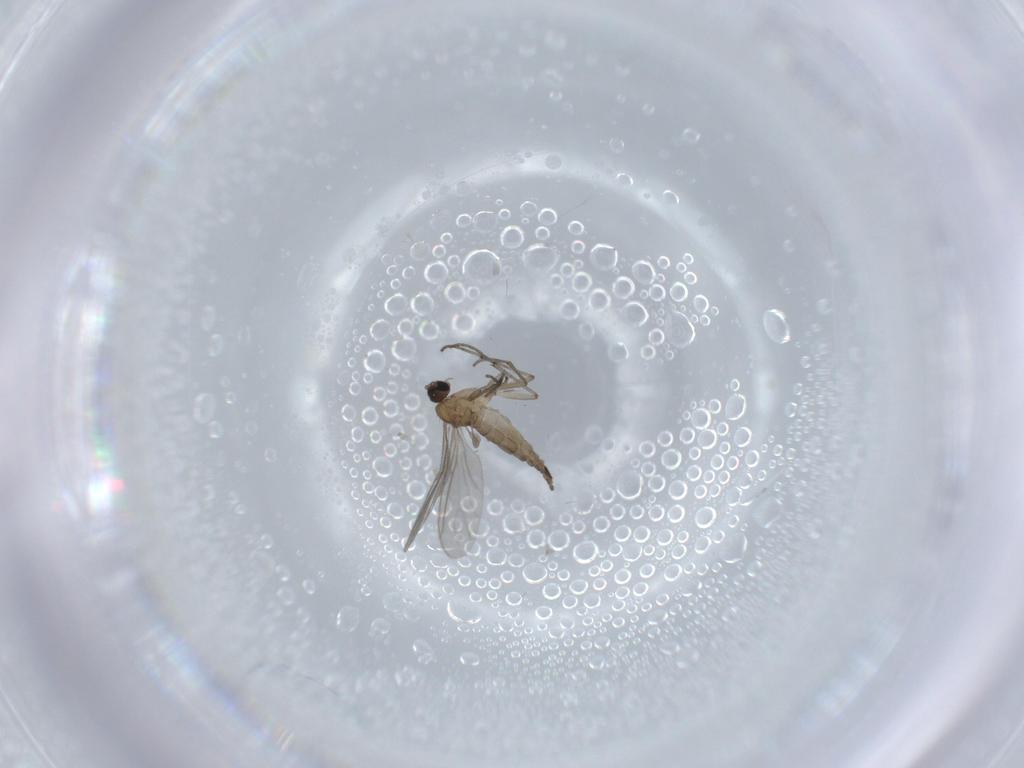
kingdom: Animalia
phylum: Arthropoda
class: Insecta
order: Diptera
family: Sciaridae
